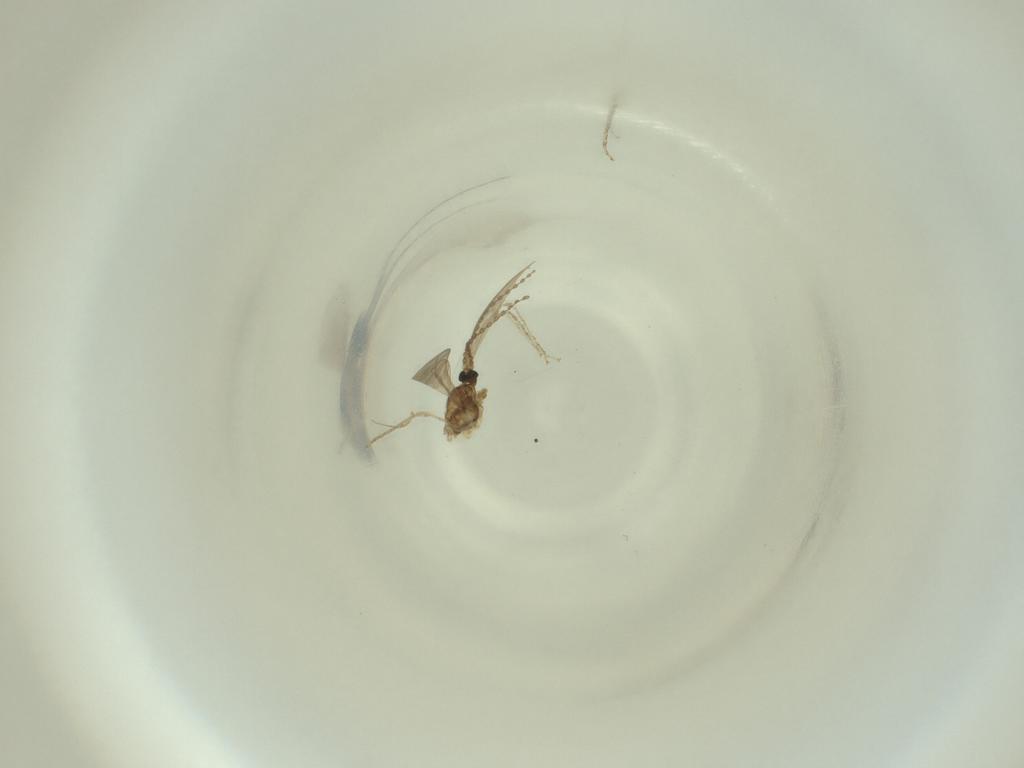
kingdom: Animalia
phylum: Arthropoda
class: Insecta
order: Diptera
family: Cecidomyiidae
